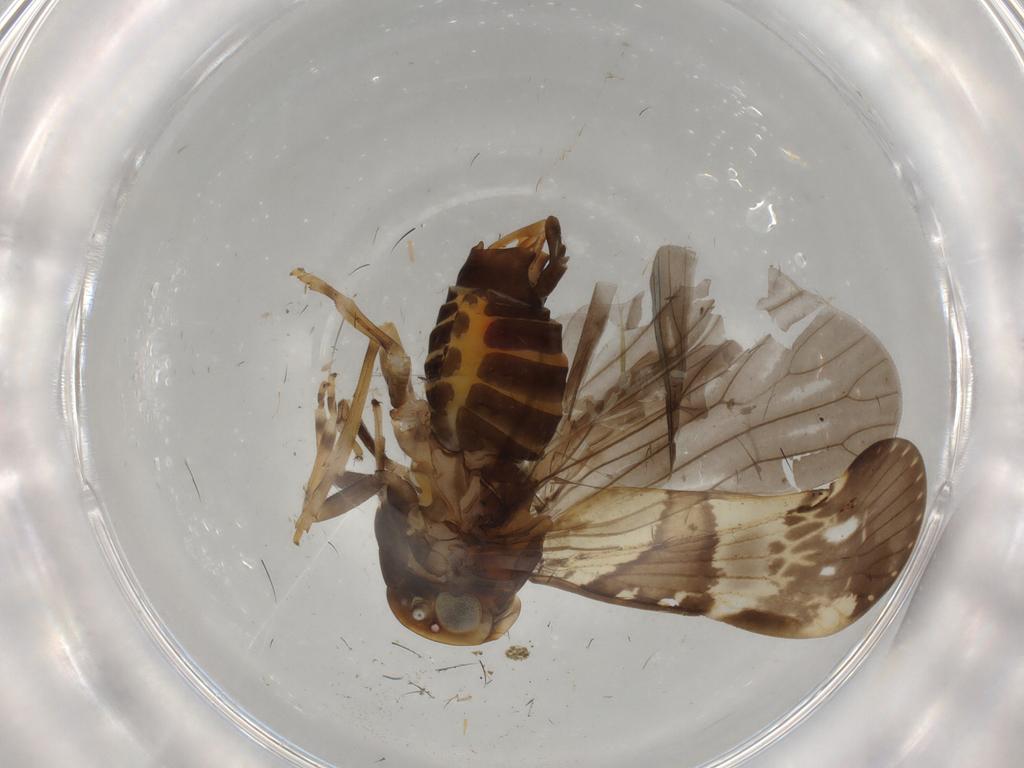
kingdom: Animalia
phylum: Arthropoda
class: Insecta
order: Hemiptera
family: Cixiidae
